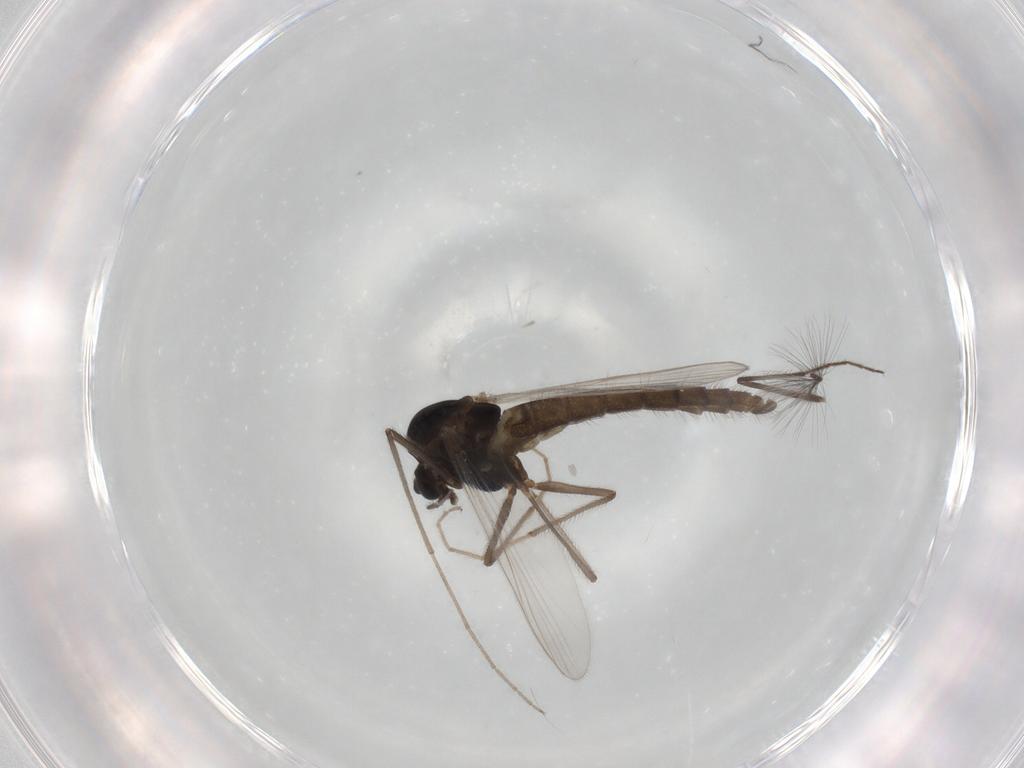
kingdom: Animalia
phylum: Arthropoda
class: Insecta
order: Diptera
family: Chironomidae
